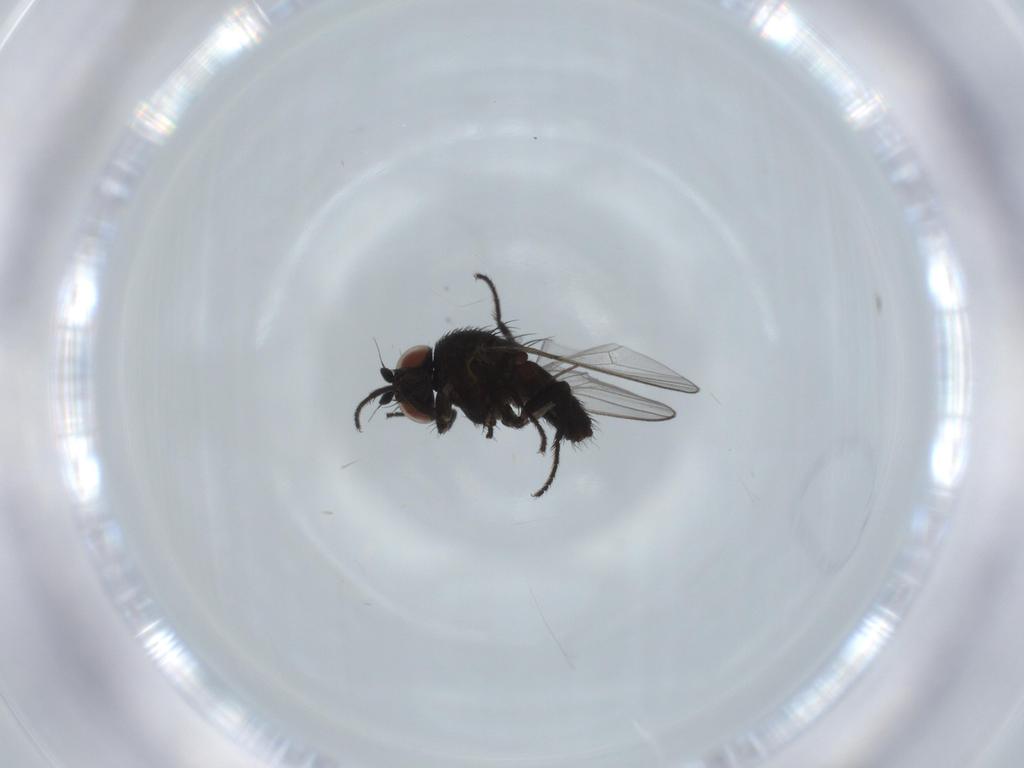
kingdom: Animalia
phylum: Arthropoda
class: Insecta
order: Diptera
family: Milichiidae
